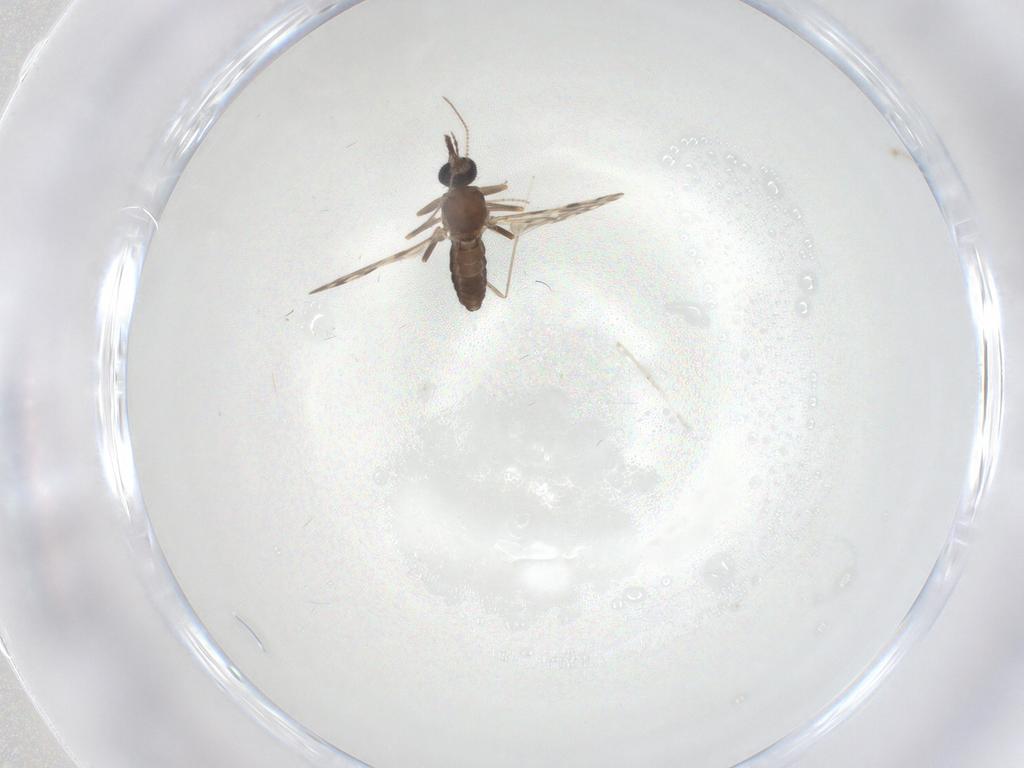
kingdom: Animalia
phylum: Arthropoda
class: Insecta
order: Diptera
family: Ceratopogonidae
